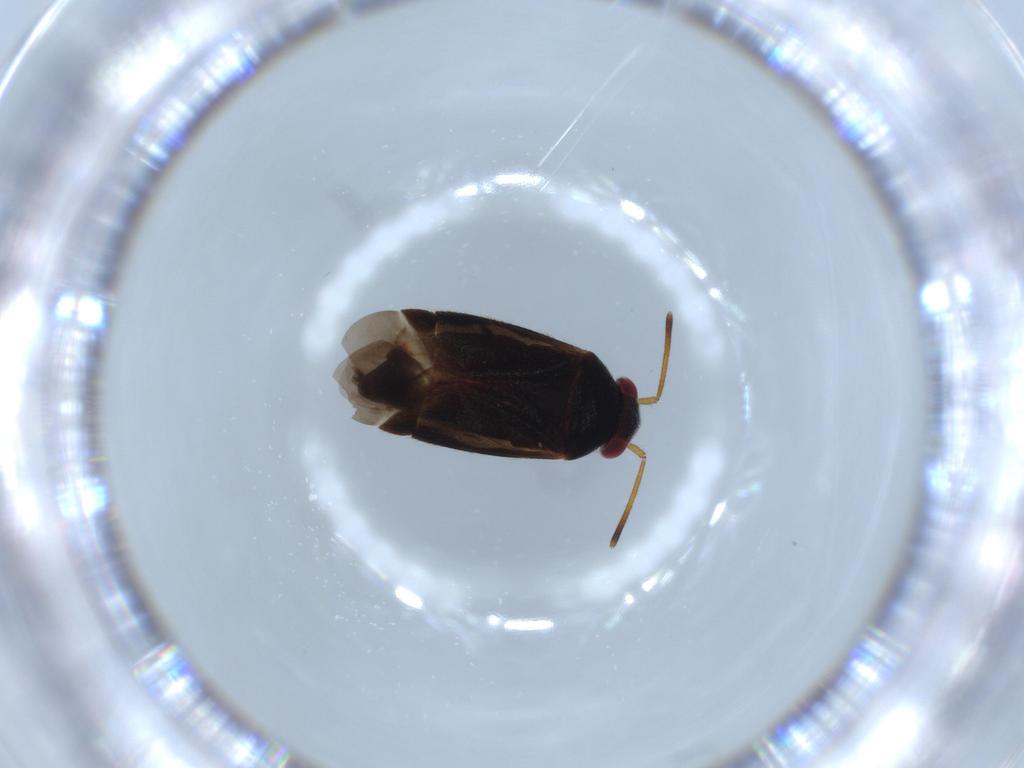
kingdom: Animalia
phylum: Arthropoda
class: Insecta
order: Hemiptera
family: Miridae
